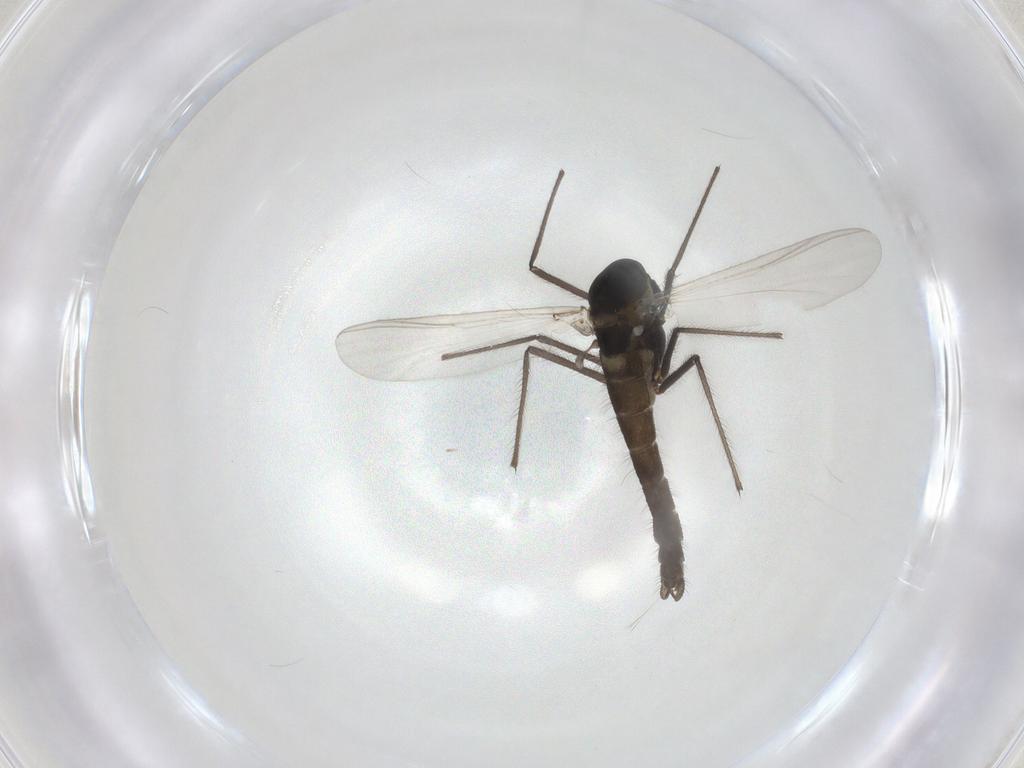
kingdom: Animalia
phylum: Arthropoda
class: Insecta
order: Diptera
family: Chironomidae
